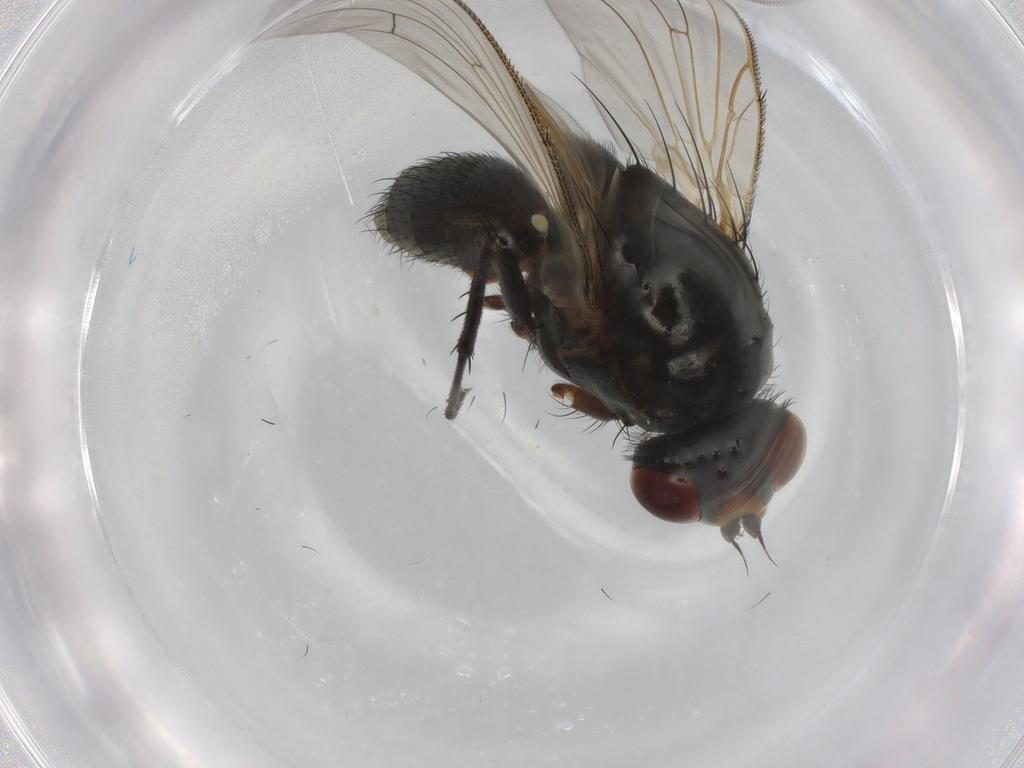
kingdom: Animalia
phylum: Arthropoda
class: Insecta
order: Diptera
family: Anthomyiidae
